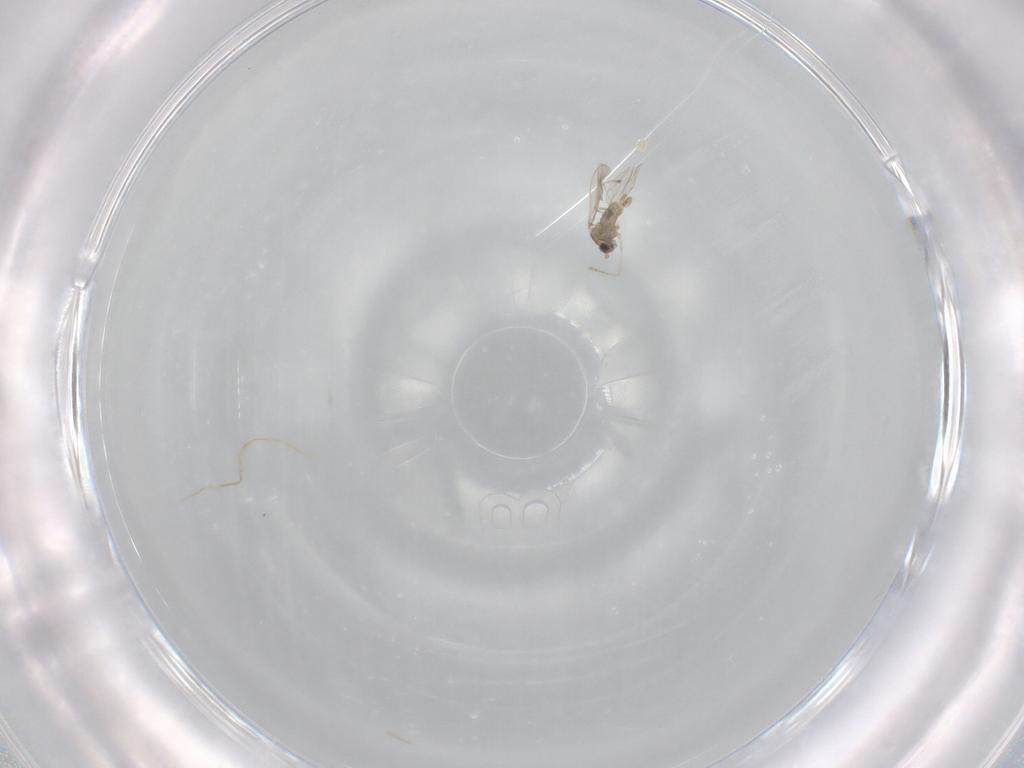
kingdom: Animalia
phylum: Arthropoda
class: Insecta
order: Diptera
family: Cecidomyiidae
